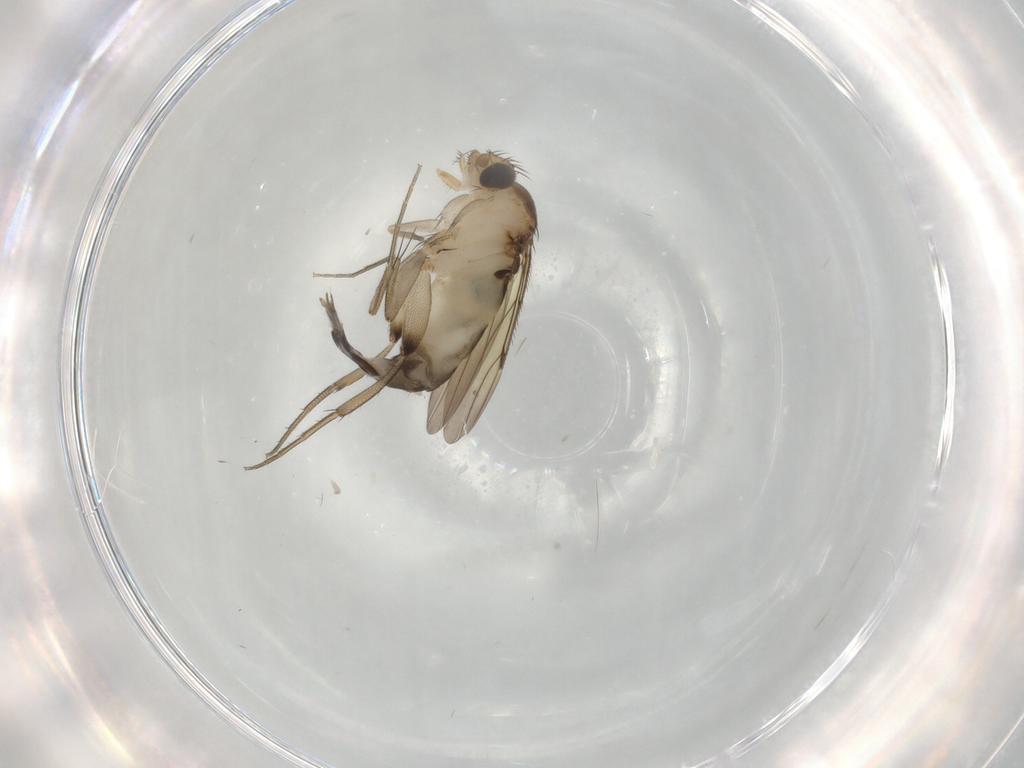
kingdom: Animalia
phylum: Arthropoda
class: Insecta
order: Diptera
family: Phoridae
